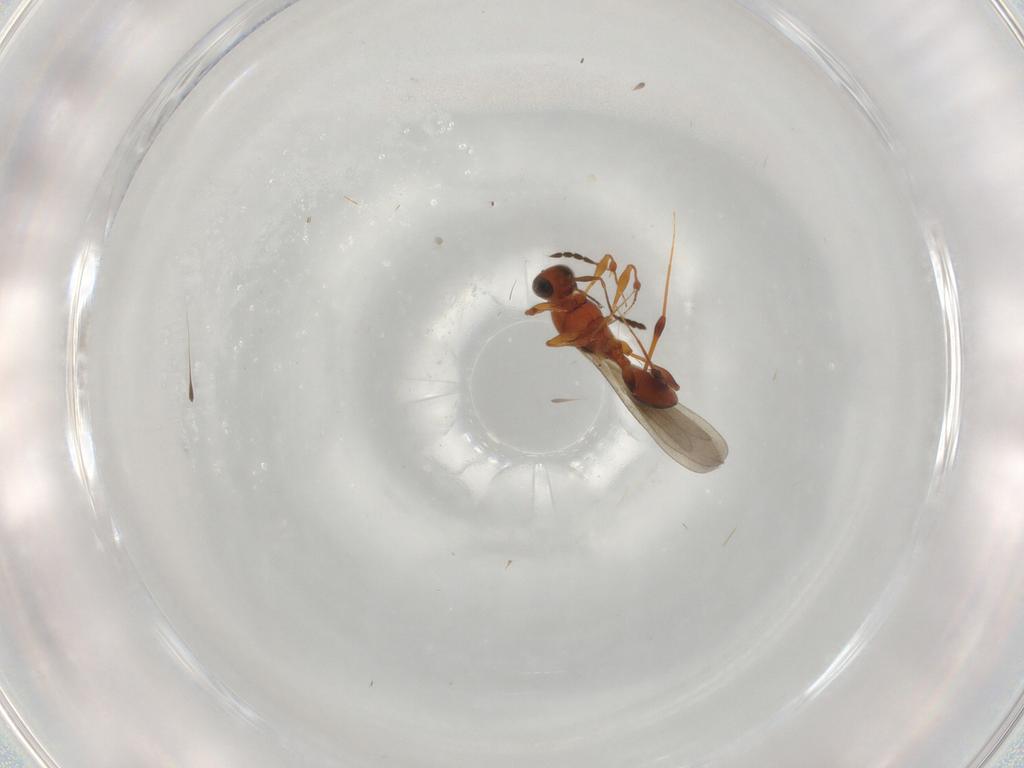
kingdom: Animalia
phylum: Arthropoda
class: Insecta
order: Hymenoptera
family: Platygastridae
